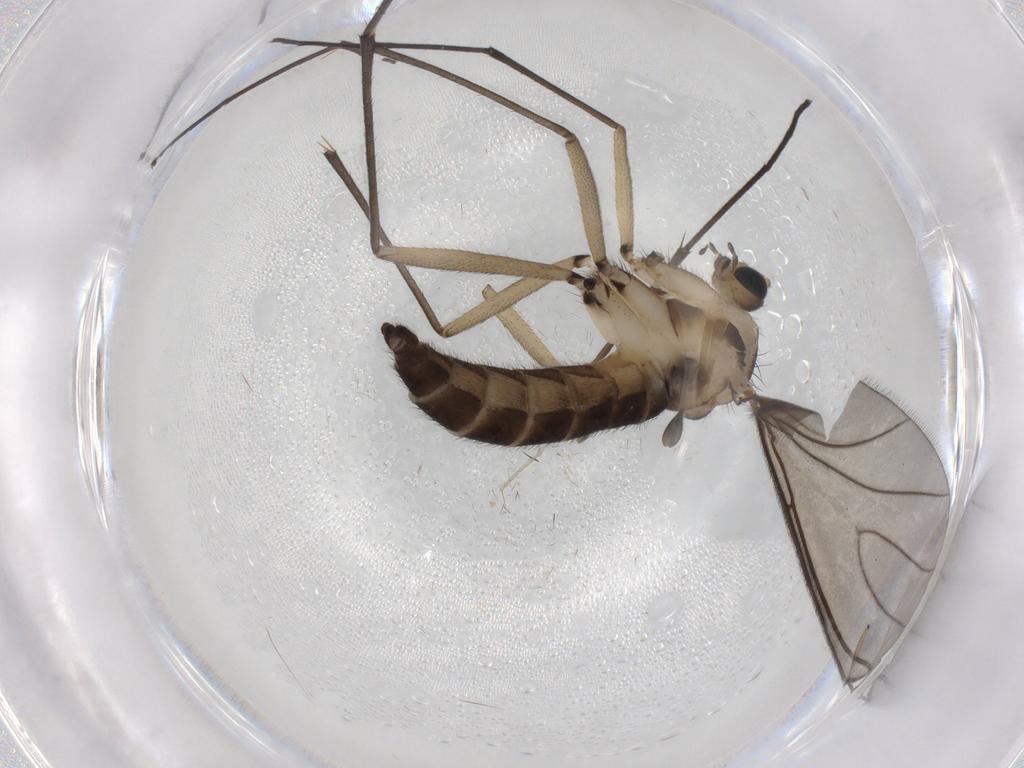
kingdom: Animalia
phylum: Arthropoda
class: Insecta
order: Diptera
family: Sciaridae
